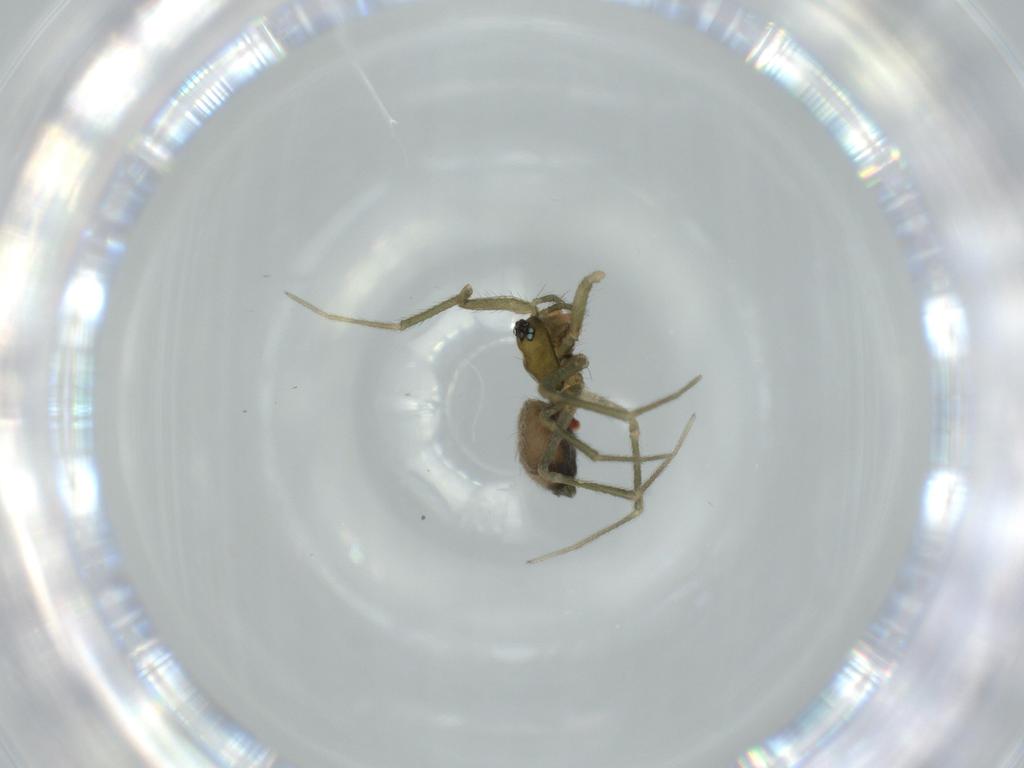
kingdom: Animalia
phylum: Arthropoda
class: Arachnida
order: Araneae
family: Linyphiidae
